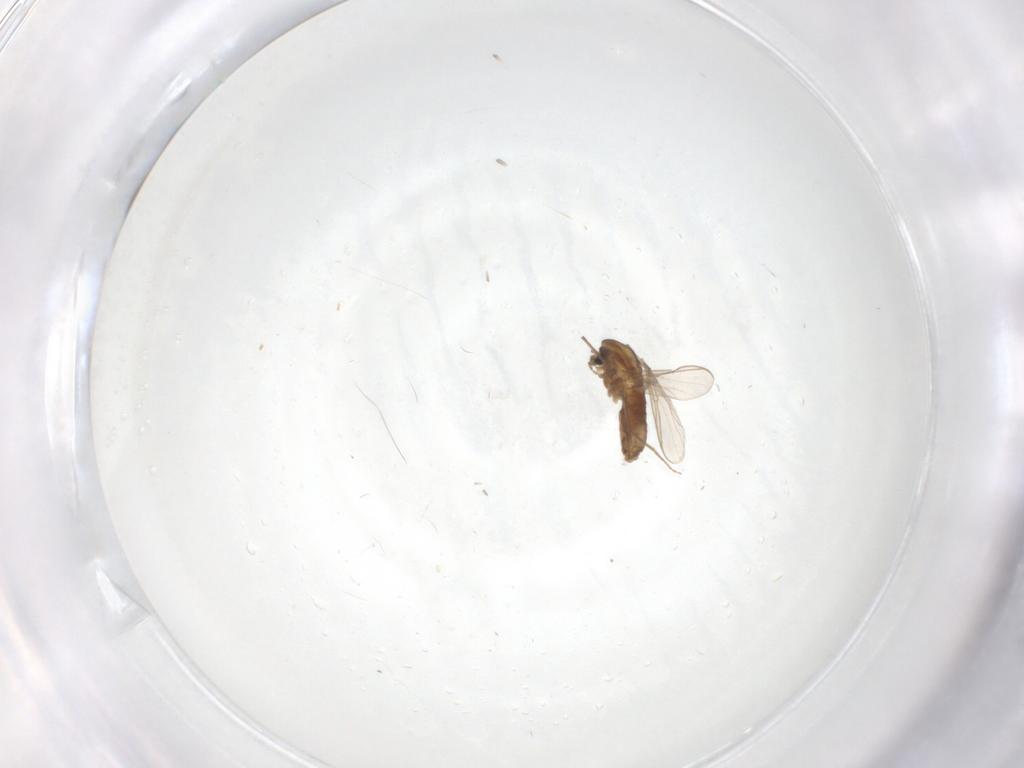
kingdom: Animalia
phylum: Arthropoda
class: Insecta
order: Diptera
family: Chironomidae
